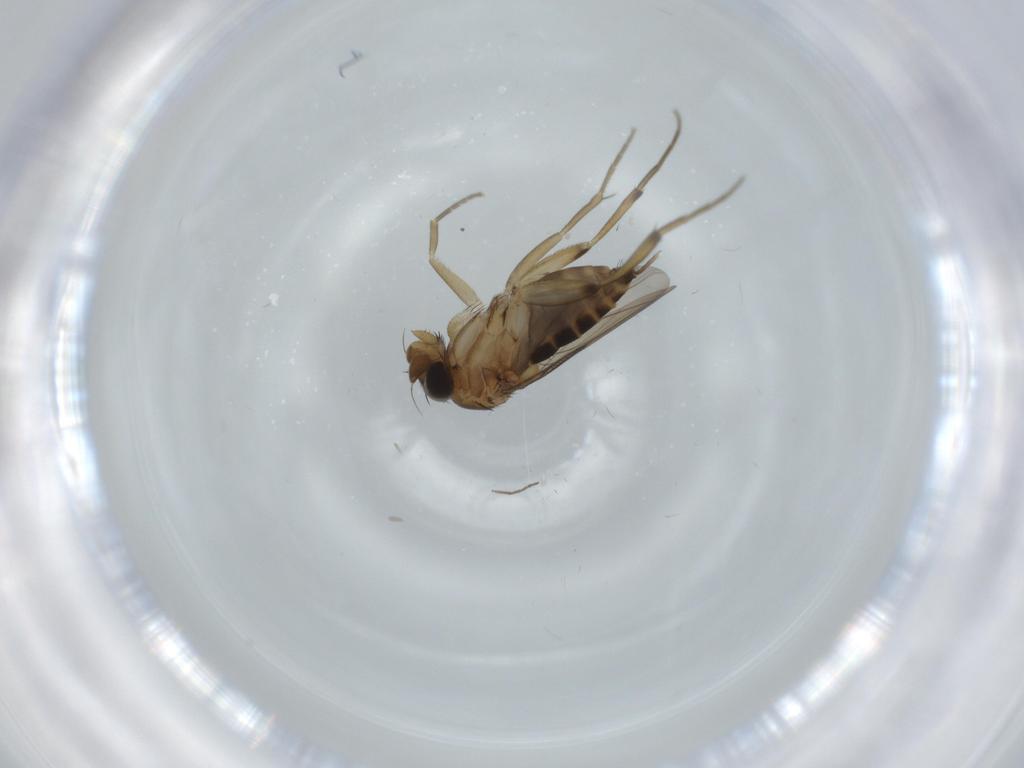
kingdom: Animalia
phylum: Arthropoda
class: Insecta
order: Diptera
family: Phoridae
